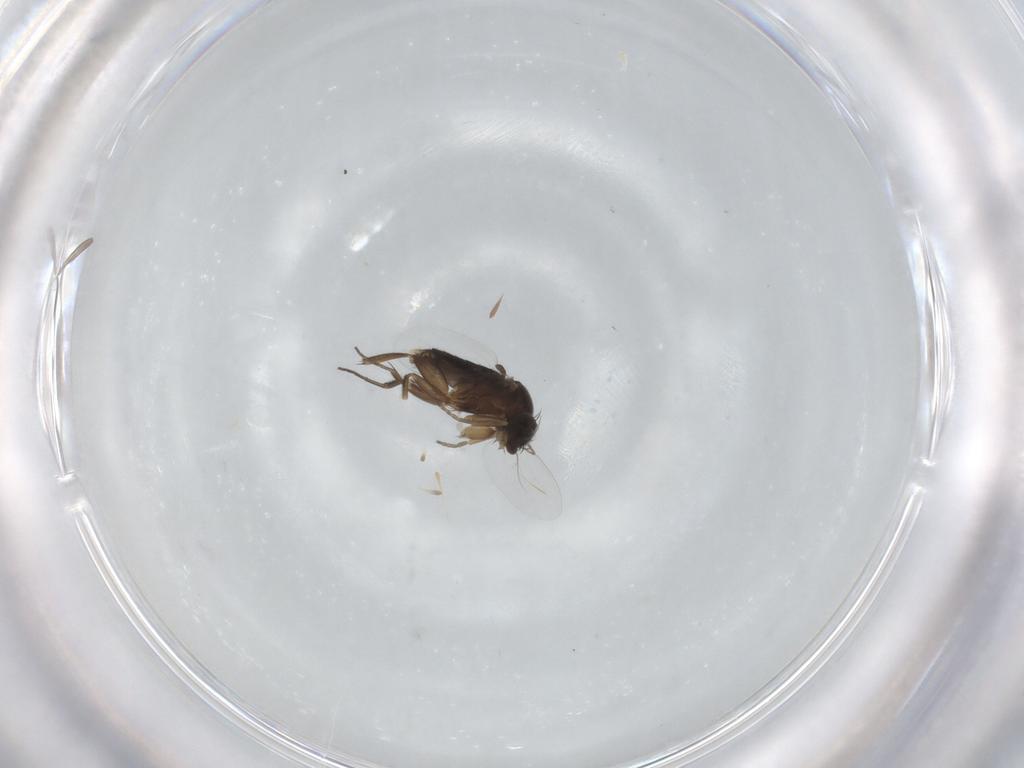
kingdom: Animalia
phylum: Arthropoda
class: Insecta
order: Diptera
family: Phoridae
